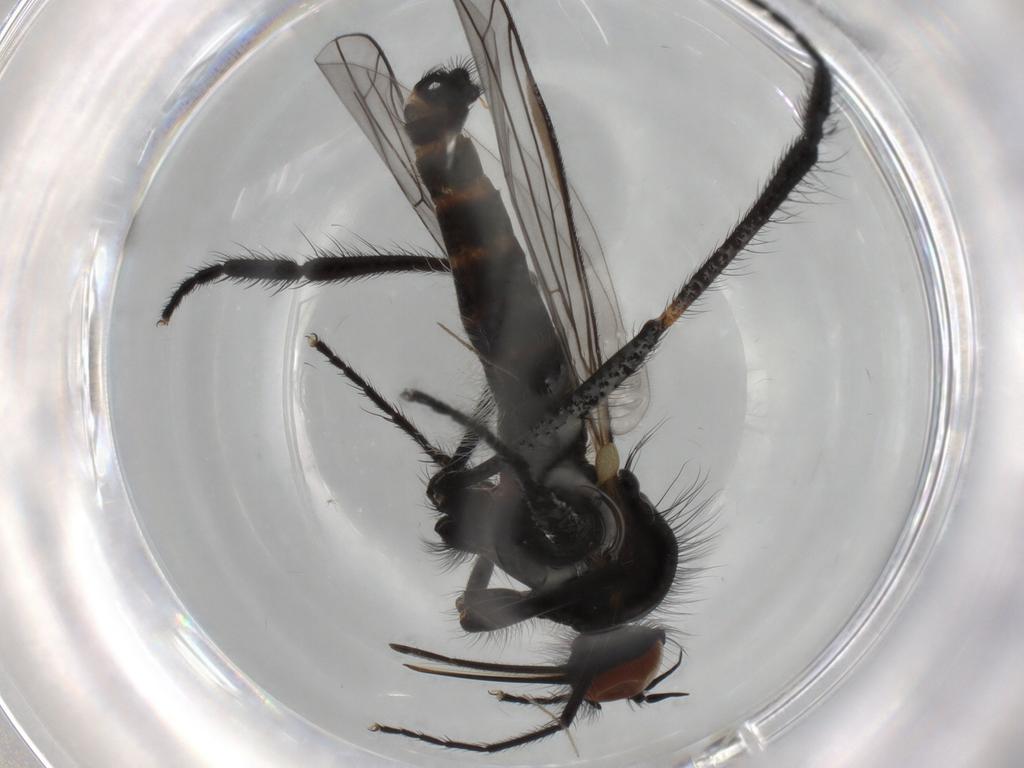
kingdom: Animalia
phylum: Arthropoda
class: Insecta
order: Diptera
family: Empididae
